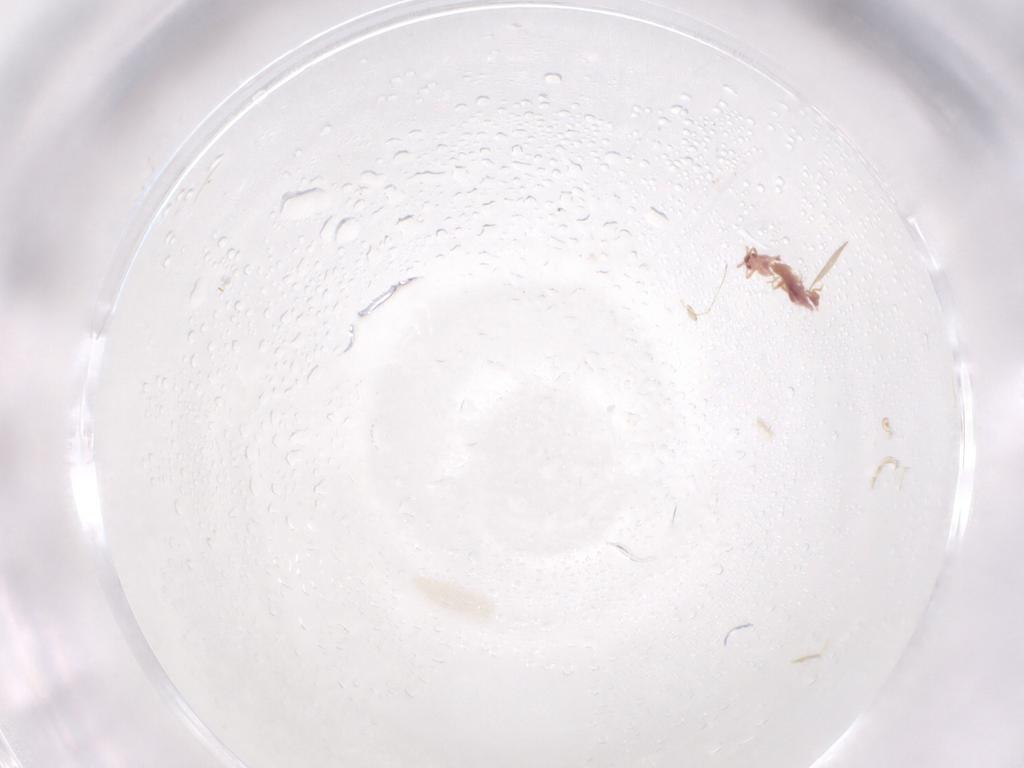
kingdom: Animalia
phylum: Arthropoda
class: Insecta
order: Diptera
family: Cecidomyiidae
